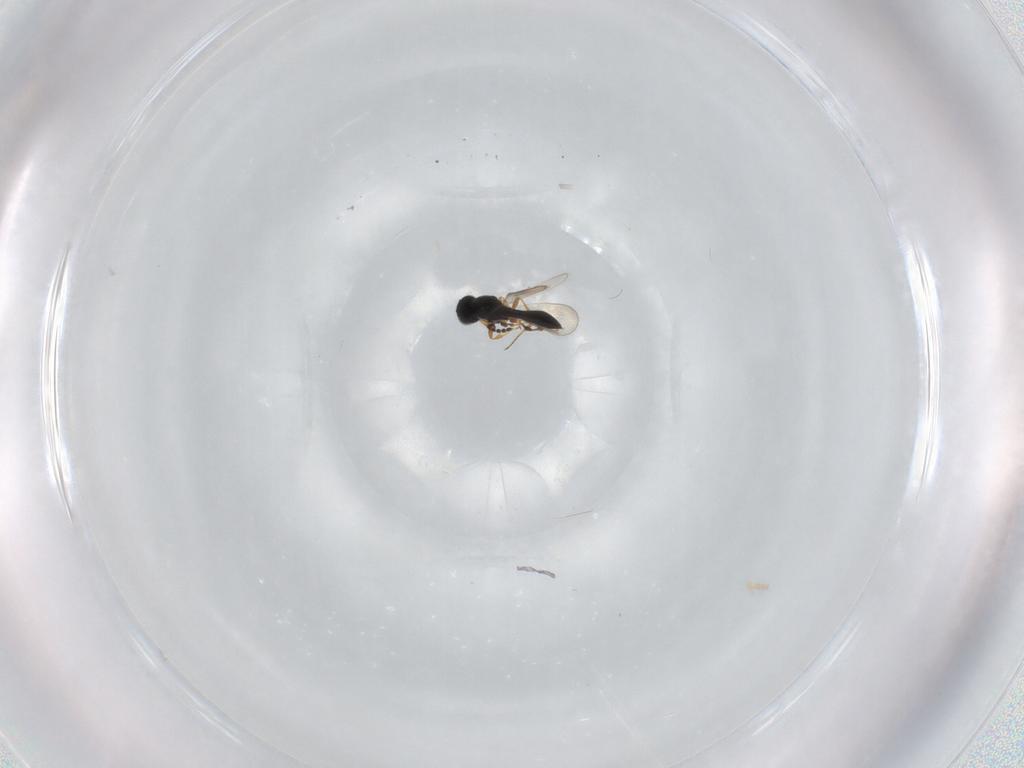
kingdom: Animalia
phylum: Arthropoda
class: Insecta
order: Hymenoptera
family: Platygastridae
